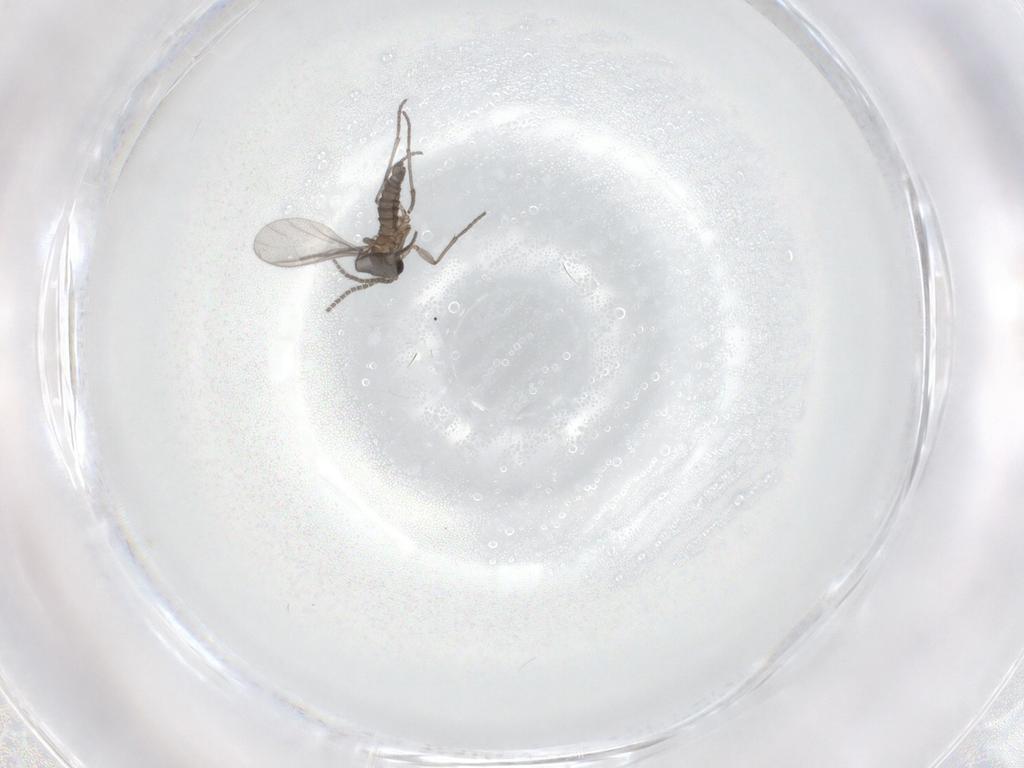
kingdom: Animalia
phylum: Arthropoda
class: Insecta
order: Diptera
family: Sciaridae
